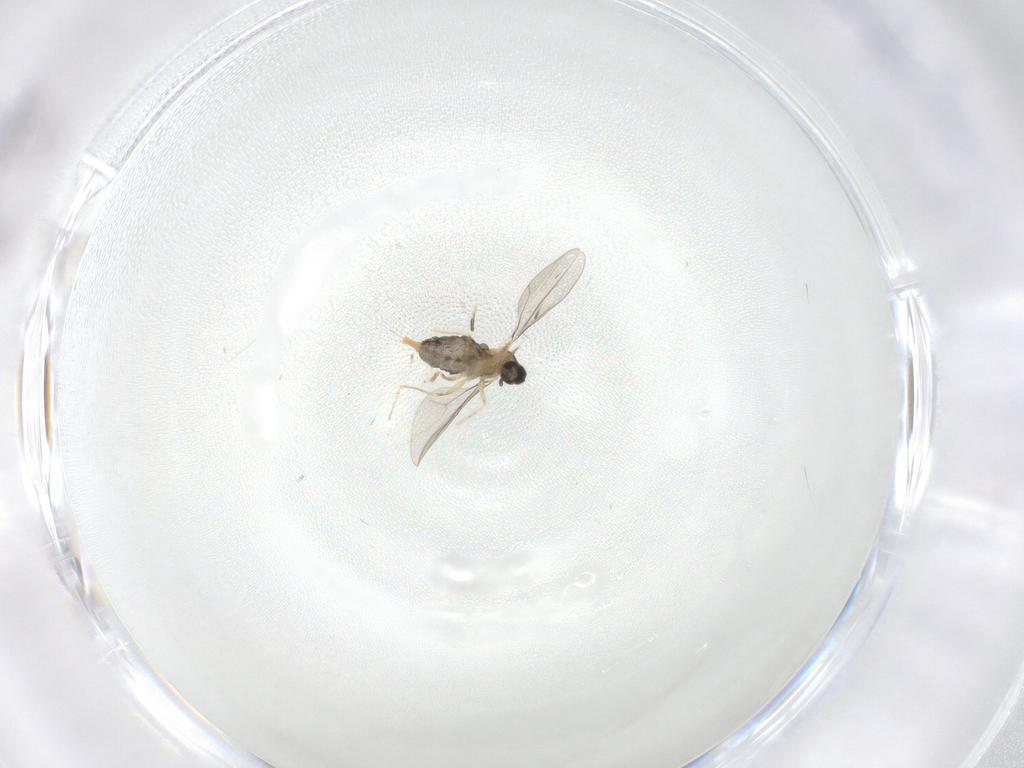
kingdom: Animalia
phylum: Arthropoda
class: Insecta
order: Diptera
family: Cecidomyiidae
